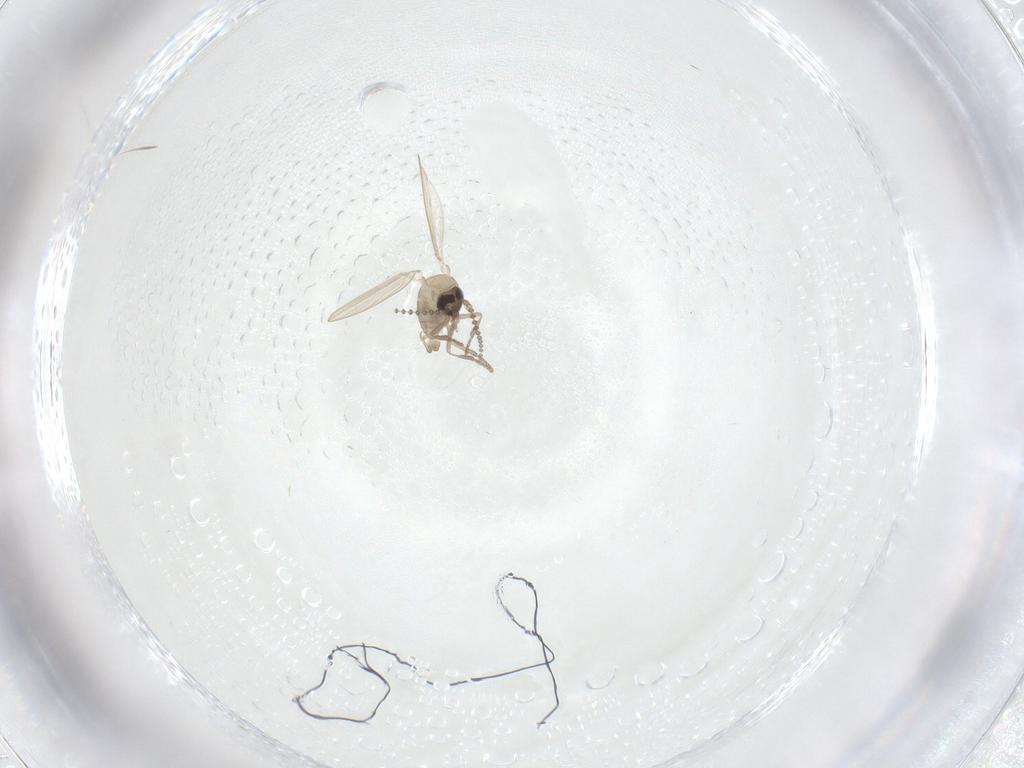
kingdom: Animalia
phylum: Arthropoda
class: Insecta
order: Diptera
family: Psychodidae
